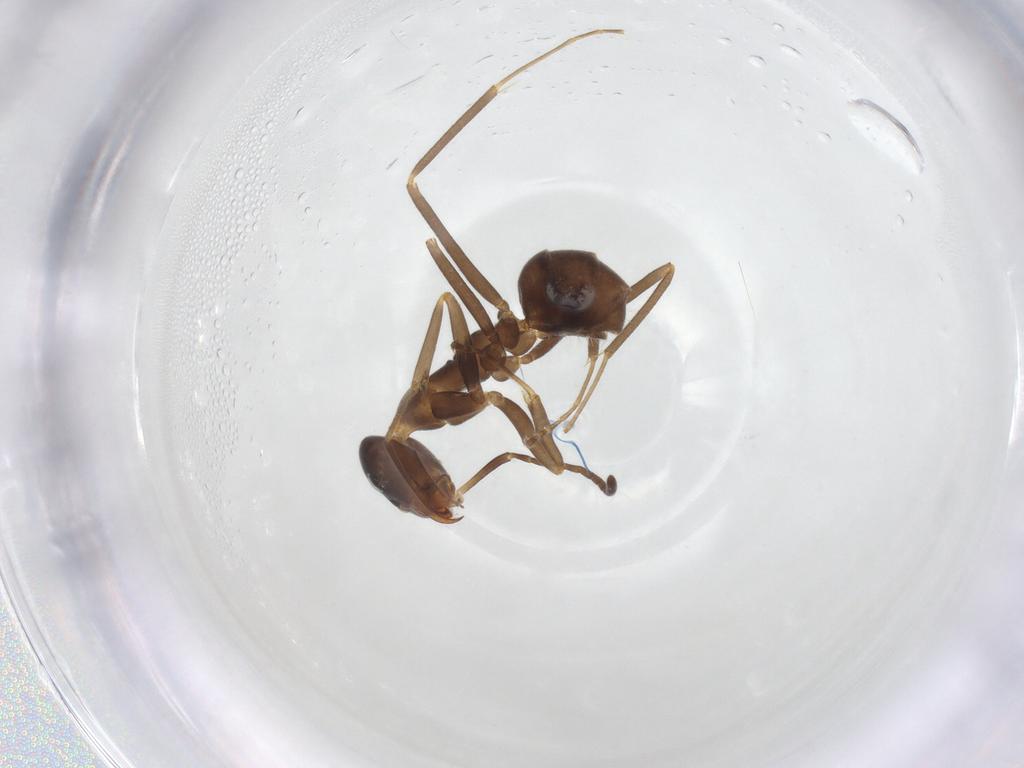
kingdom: Animalia
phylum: Arthropoda
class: Insecta
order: Hymenoptera
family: Formicidae
